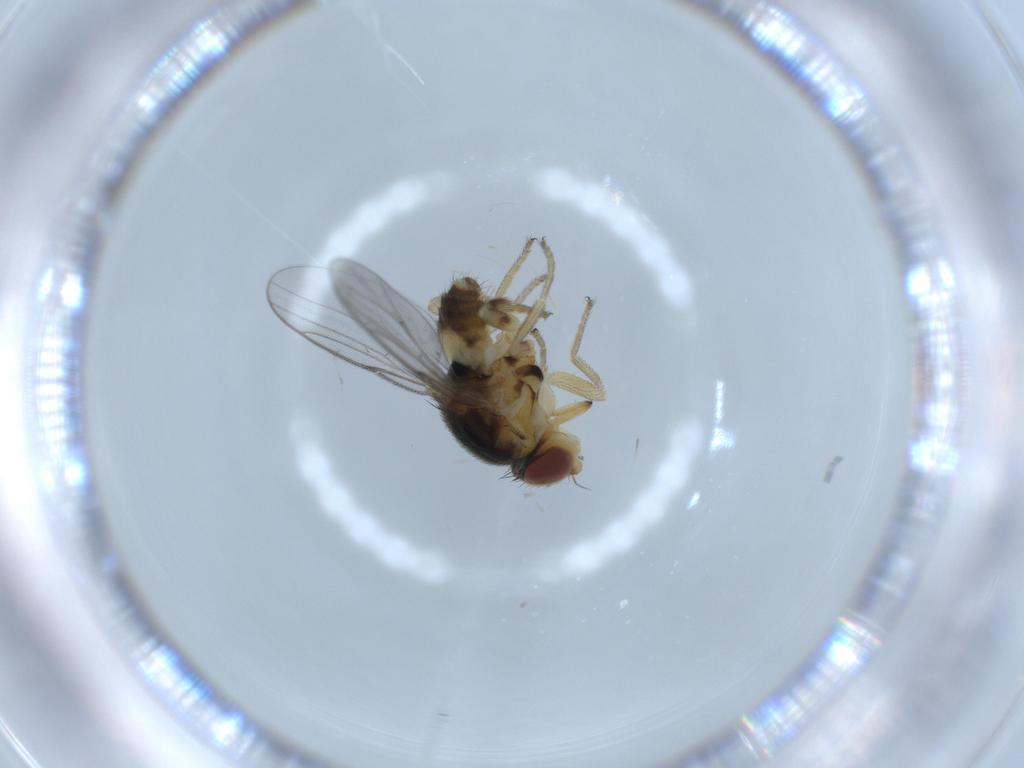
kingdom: Animalia
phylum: Arthropoda
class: Insecta
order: Diptera
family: Chloropidae
